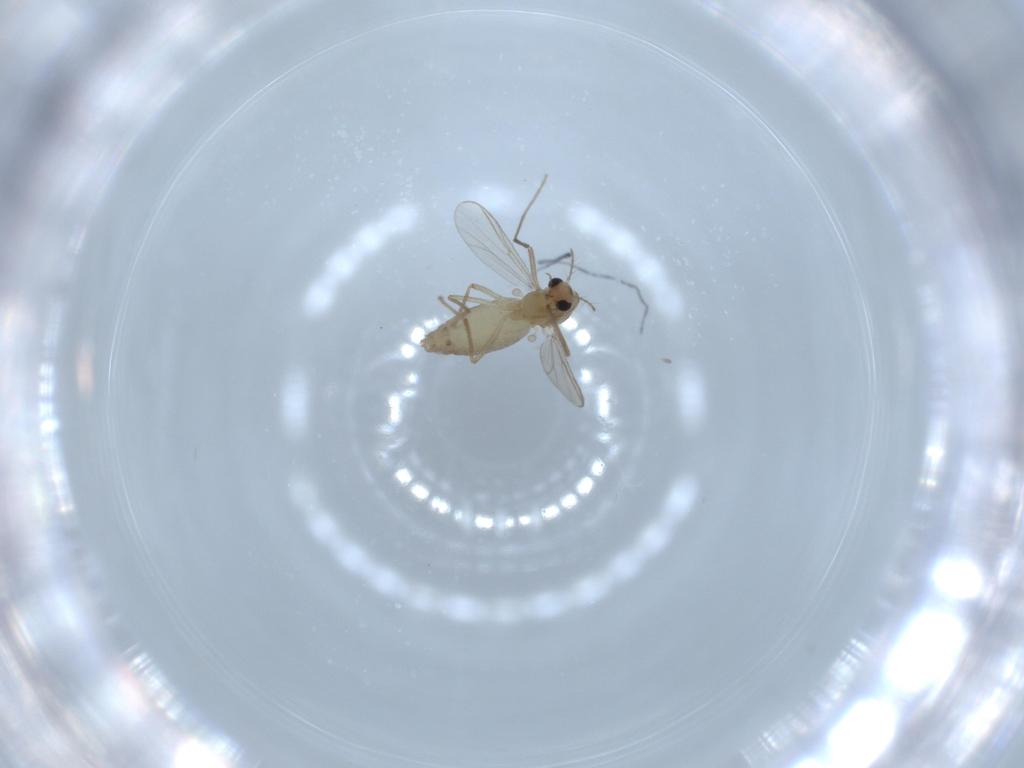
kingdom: Animalia
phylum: Arthropoda
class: Insecta
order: Diptera
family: Chironomidae
